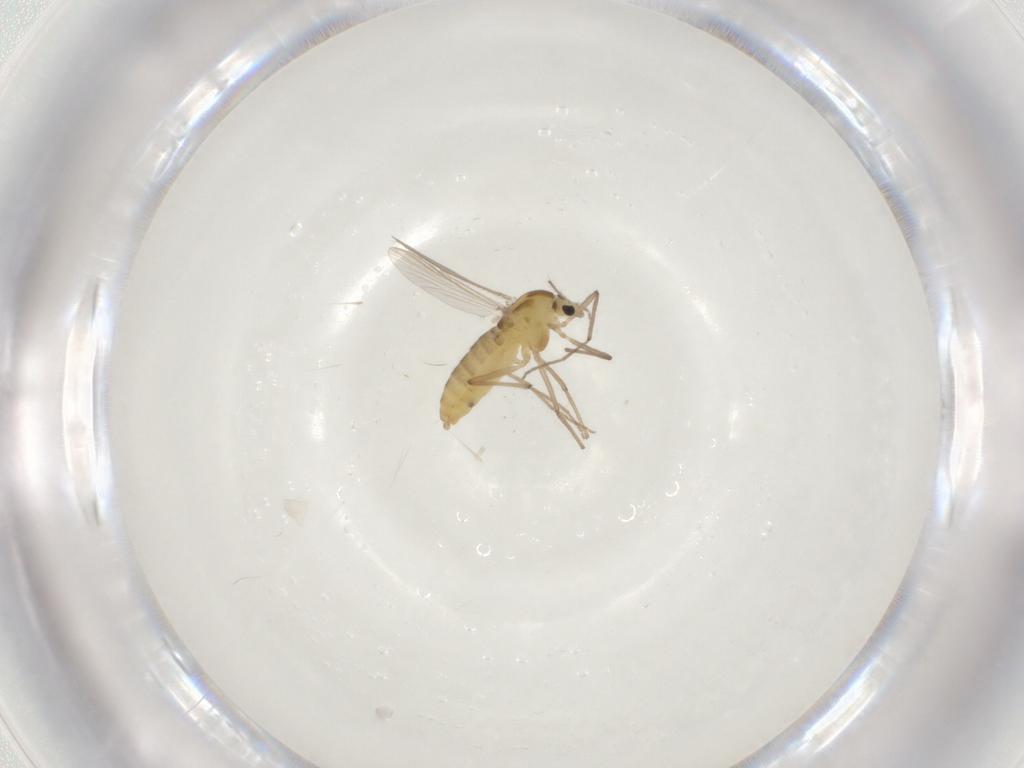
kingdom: Animalia
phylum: Arthropoda
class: Insecta
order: Diptera
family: Chironomidae
